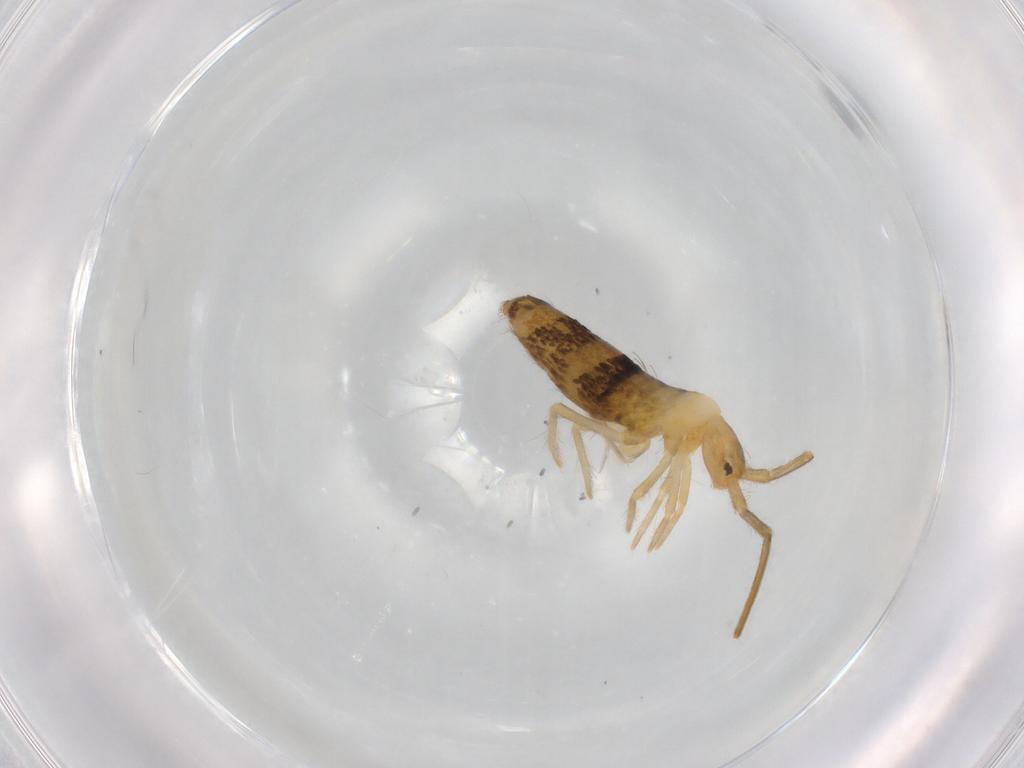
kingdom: Animalia
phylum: Arthropoda
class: Collembola
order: Entomobryomorpha
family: Entomobryidae
